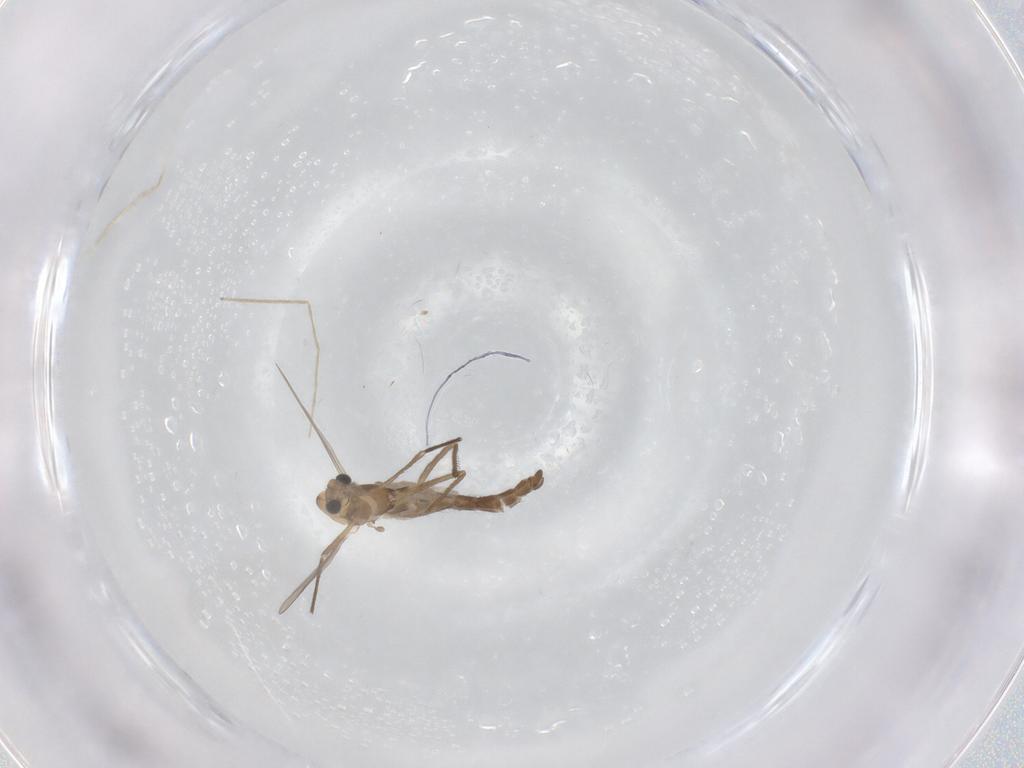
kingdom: Animalia
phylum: Arthropoda
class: Insecta
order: Diptera
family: Chironomidae
